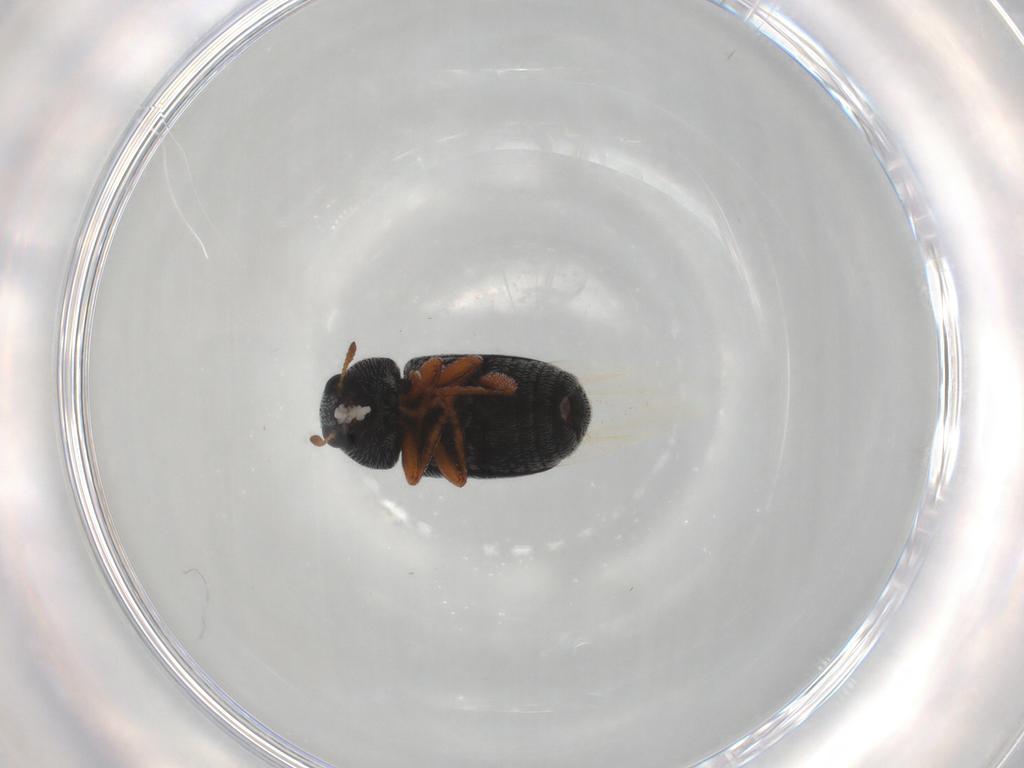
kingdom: Animalia
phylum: Arthropoda
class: Insecta
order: Coleoptera
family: Anthribidae
